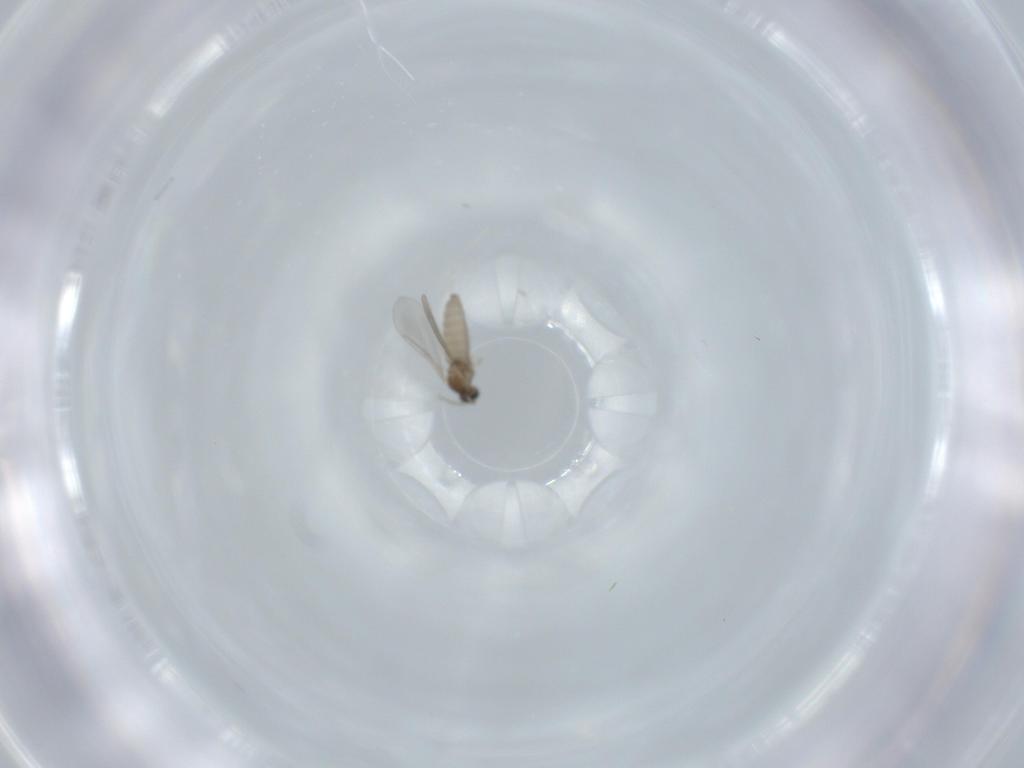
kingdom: Animalia
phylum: Arthropoda
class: Insecta
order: Diptera
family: Cecidomyiidae
